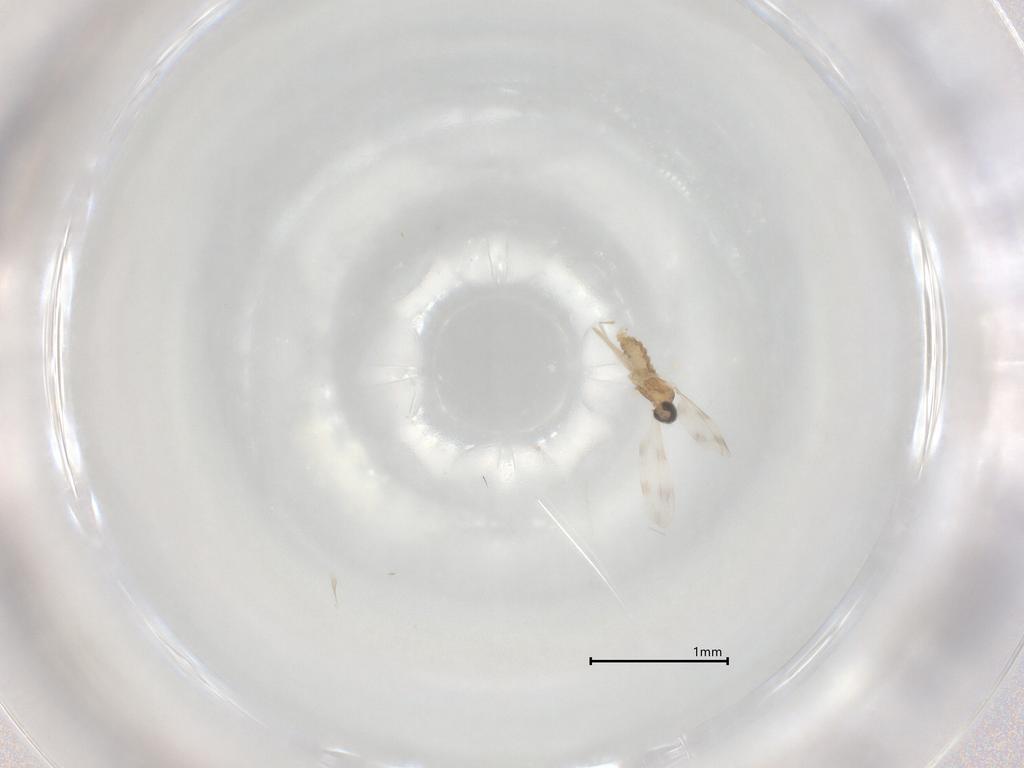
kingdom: Animalia
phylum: Arthropoda
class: Insecta
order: Diptera
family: Cecidomyiidae
